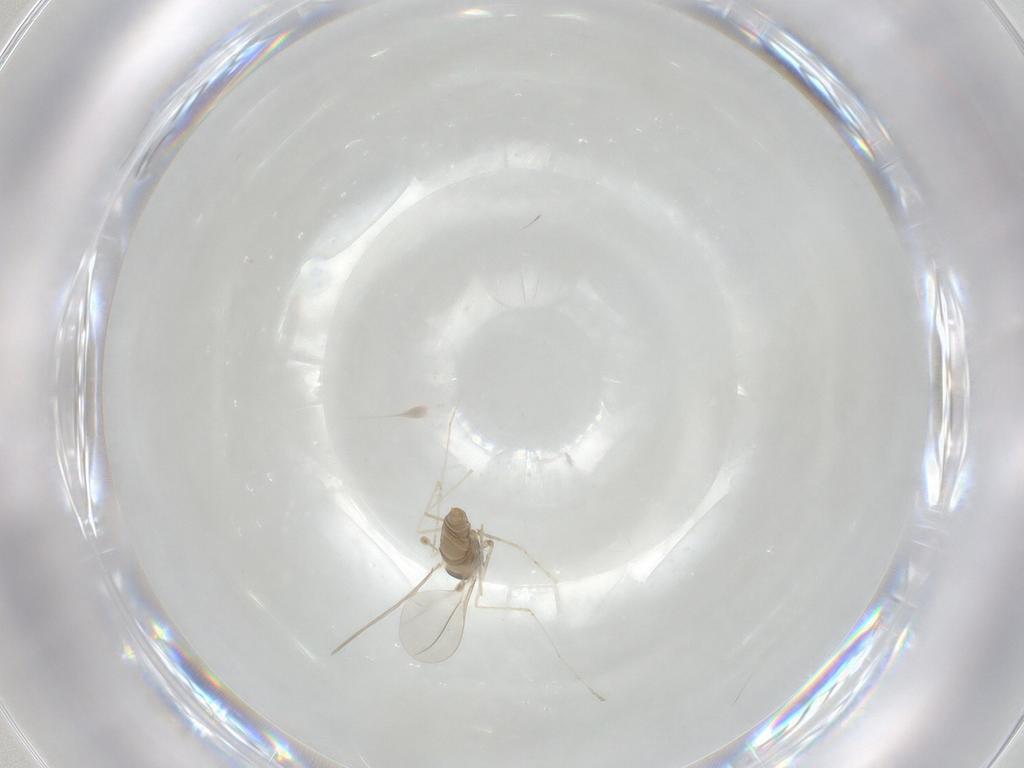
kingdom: Animalia
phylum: Arthropoda
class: Insecta
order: Diptera
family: Cecidomyiidae
